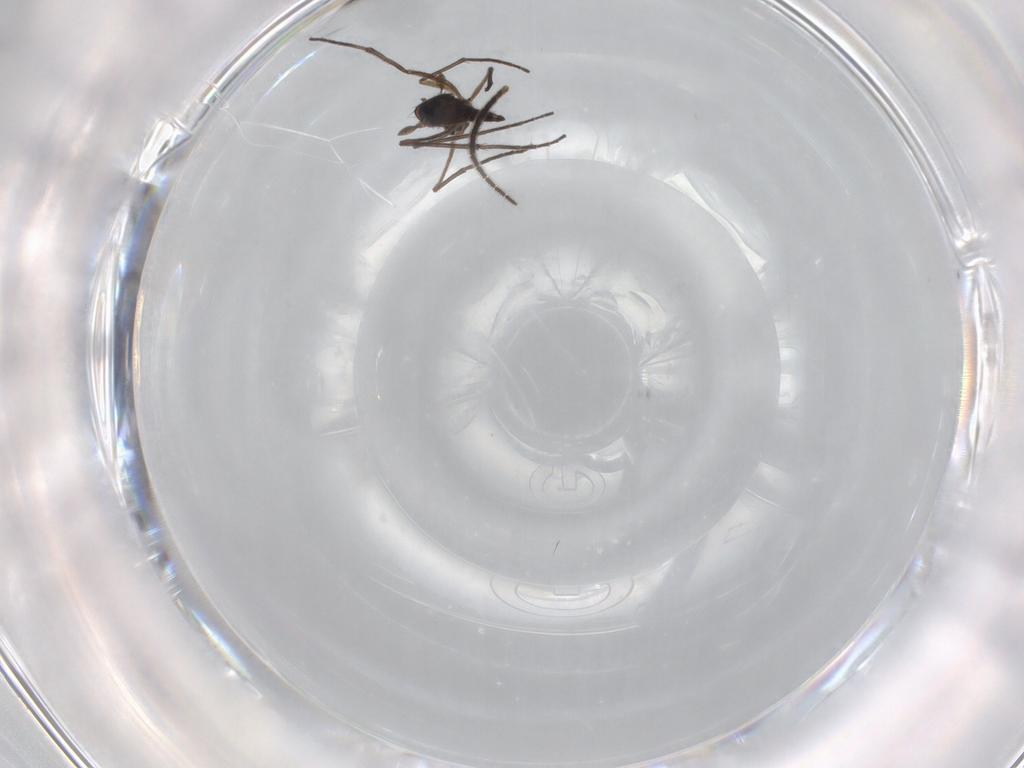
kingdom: Animalia
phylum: Arthropoda
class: Insecta
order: Diptera
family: Sciaridae
